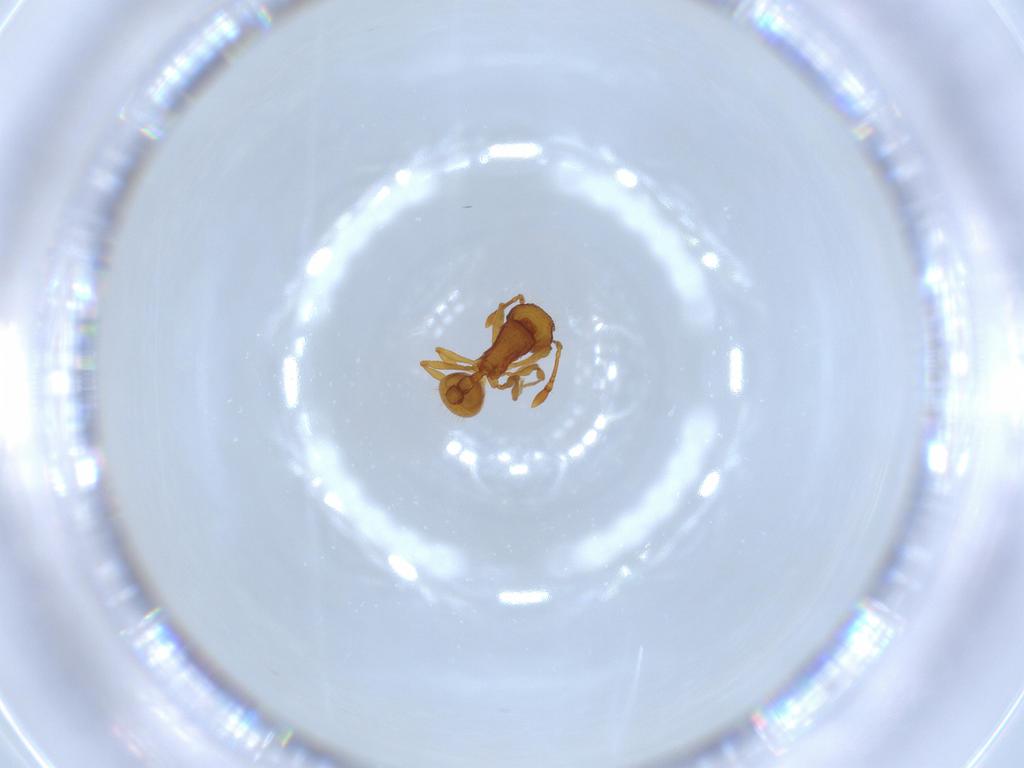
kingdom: Animalia
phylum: Arthropoda
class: Insecta
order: Hymenoptera
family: Formicidae
